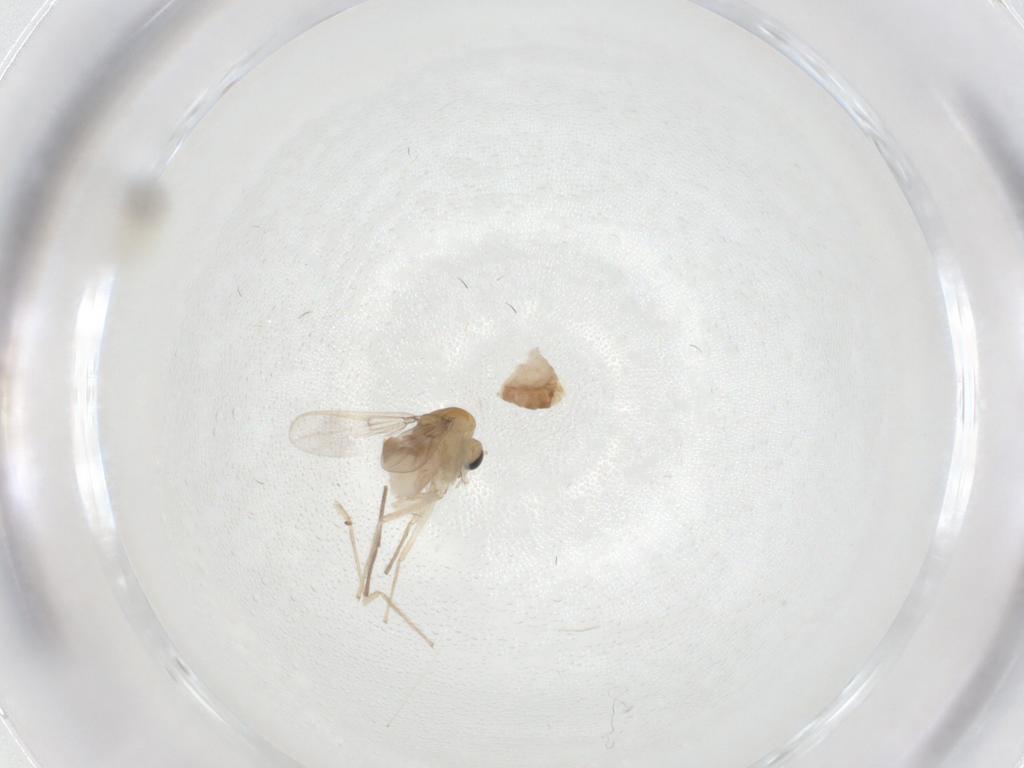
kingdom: Animalia
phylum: Arthropoda
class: Insecta
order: Diptera
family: Chironomidae
